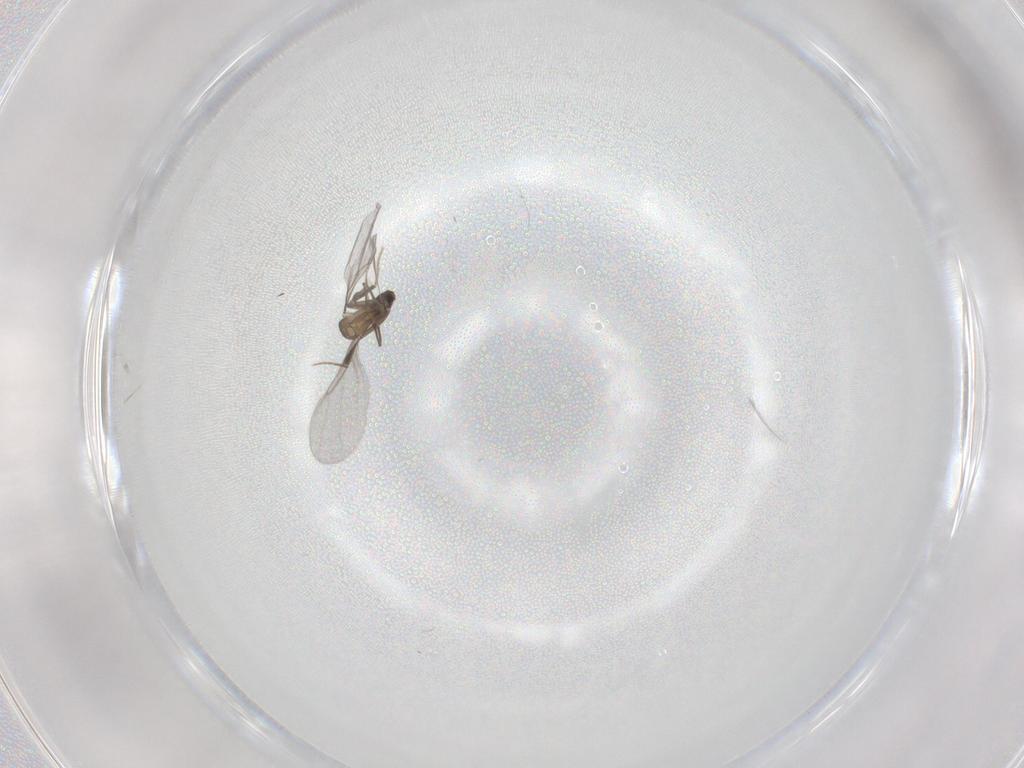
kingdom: Animalia
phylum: Arthropoda
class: Insecta
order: Diptera
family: Phoridae
